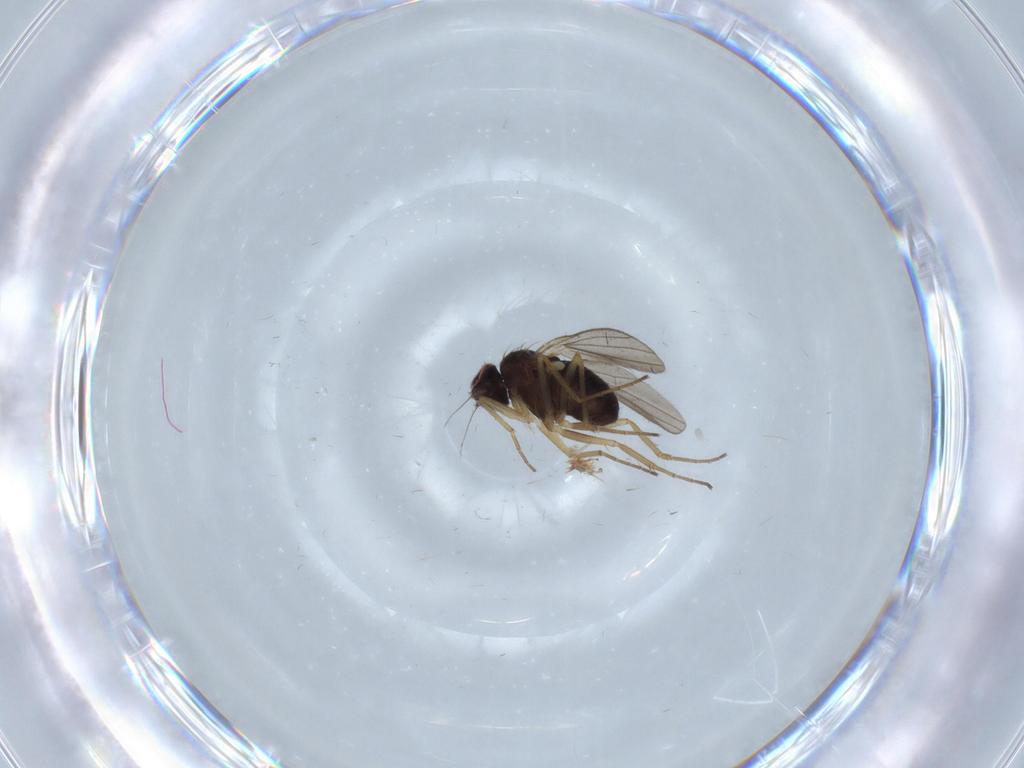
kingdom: Animalia
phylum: Arthropoda
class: Insecta
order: Diptera
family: Dolichopodidae
